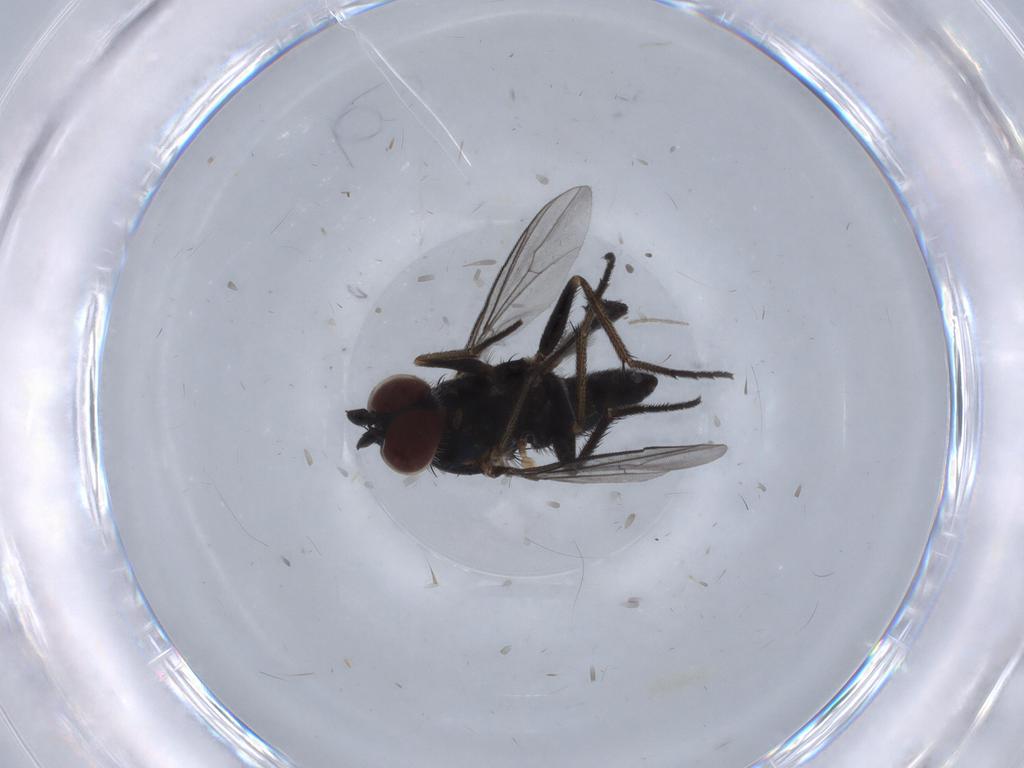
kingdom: Animalia
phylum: Arthropoda
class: Insecta
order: Diptera
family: Dolichopodidae
